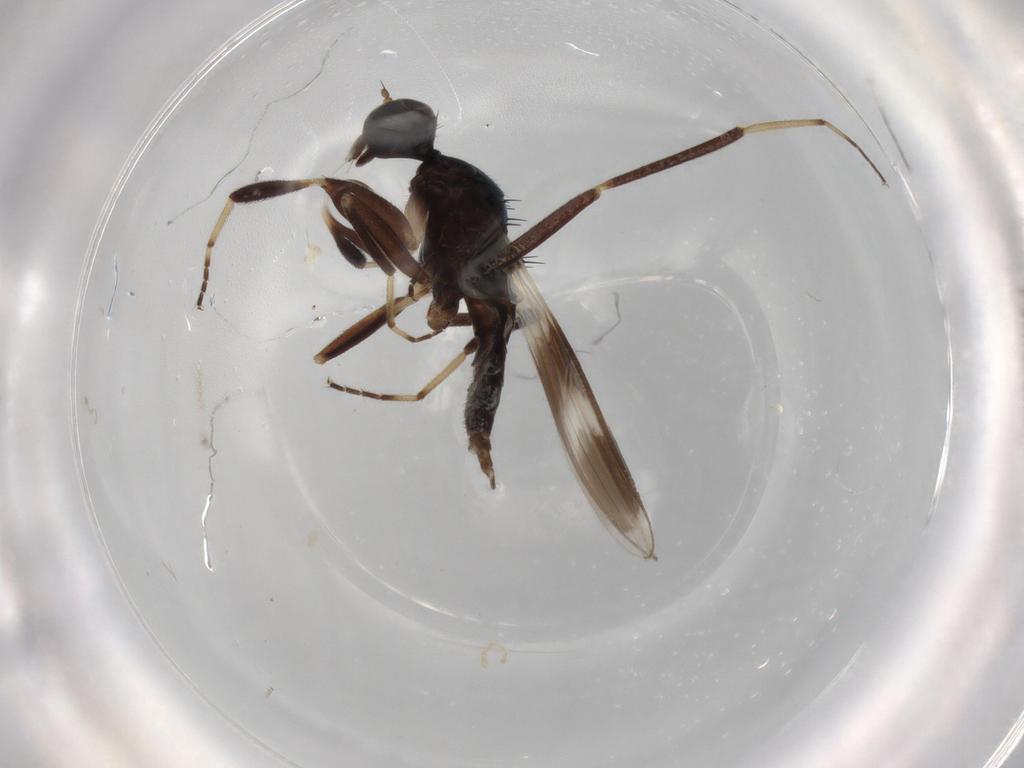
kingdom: Animalia
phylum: Arthropoda
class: Insecta
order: Diptera
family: Hybotidae
